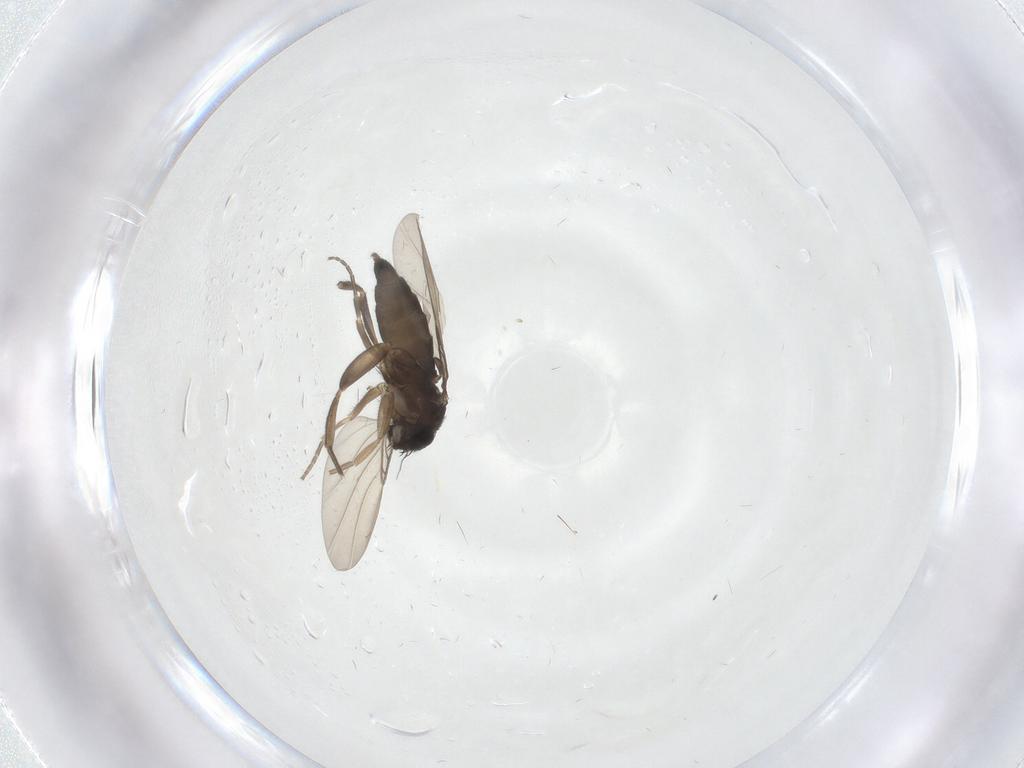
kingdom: Animalia
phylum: Arthropoda
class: Insecta
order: Diptera
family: Phoridae
